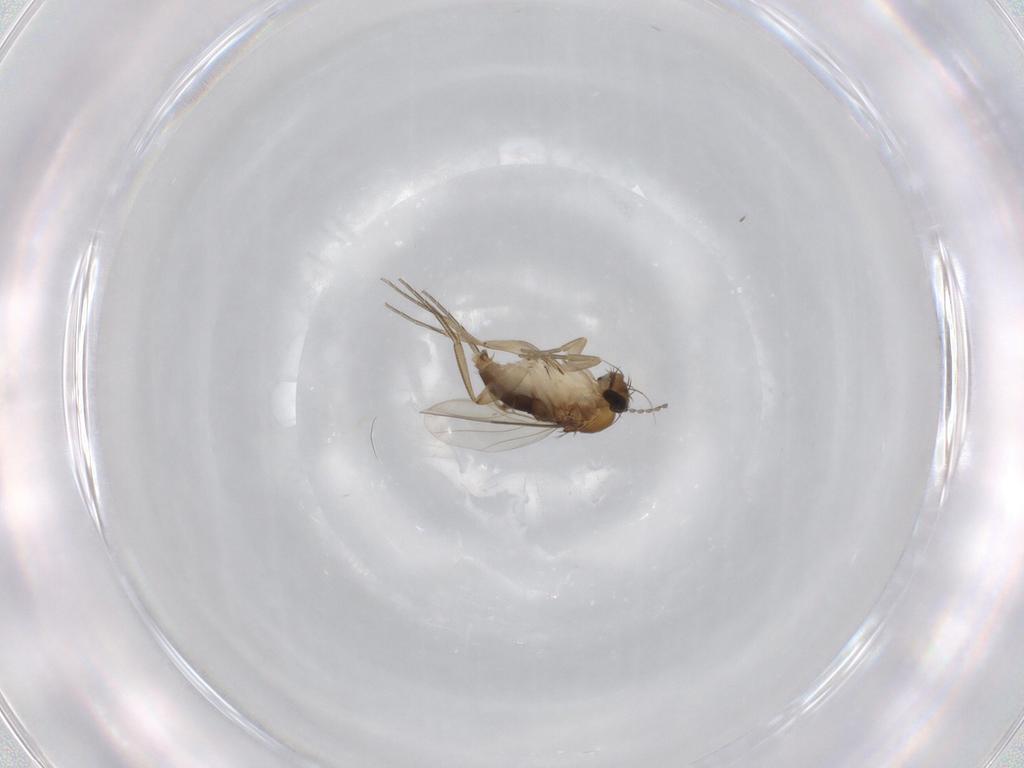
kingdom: Animalia
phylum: Arthropoda
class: Insecta
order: Diptera
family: Phoridae
